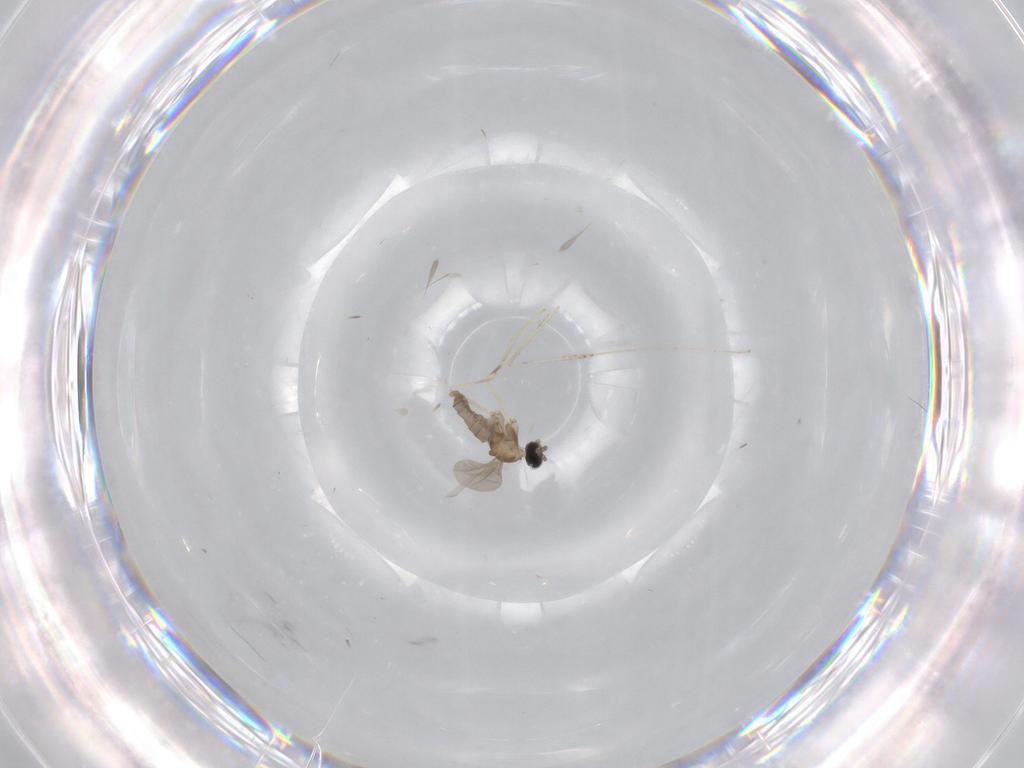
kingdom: Animalia
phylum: Arthropoda
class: Insecta
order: Diptera
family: Cecidomyiidae
